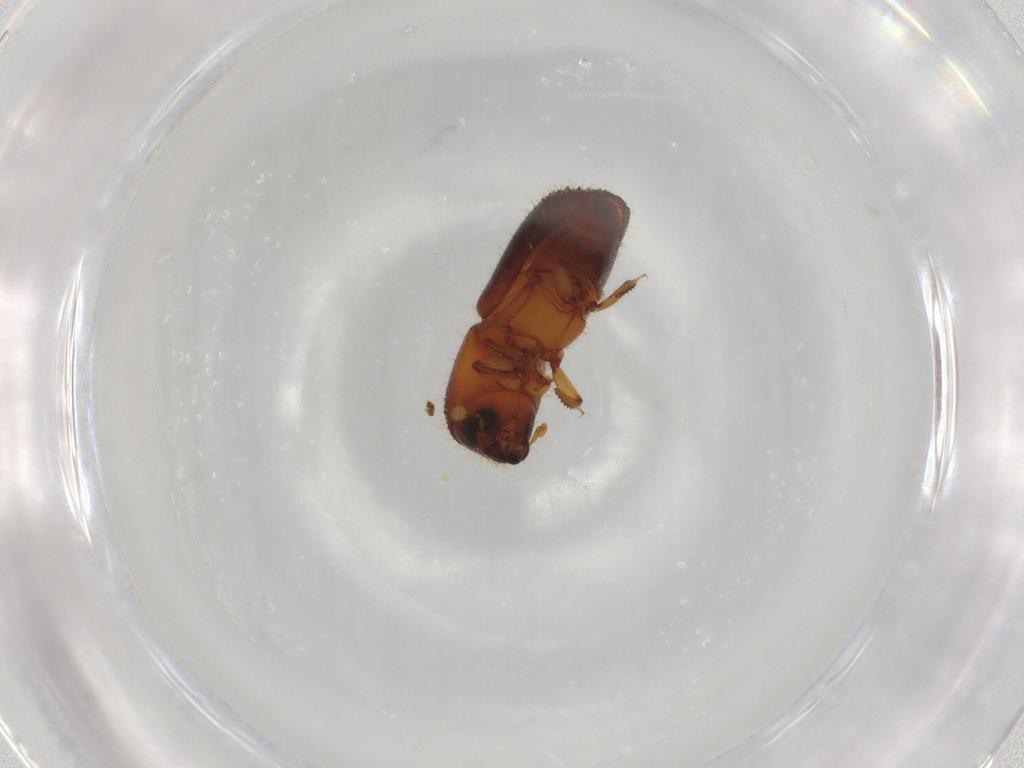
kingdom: Animalia
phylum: Arthropoda
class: Insecta
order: Coleoptera
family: Curculionidae
